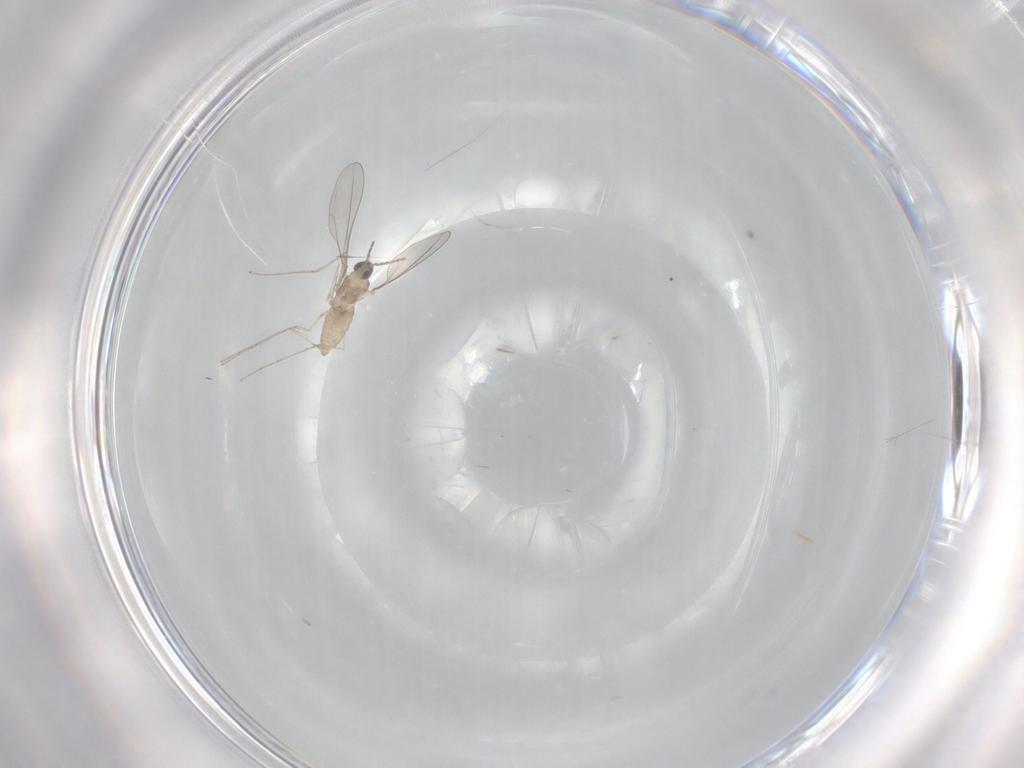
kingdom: Animalia
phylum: Arthropoda
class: Insecta
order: Diptera
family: Cecidomyiidae
